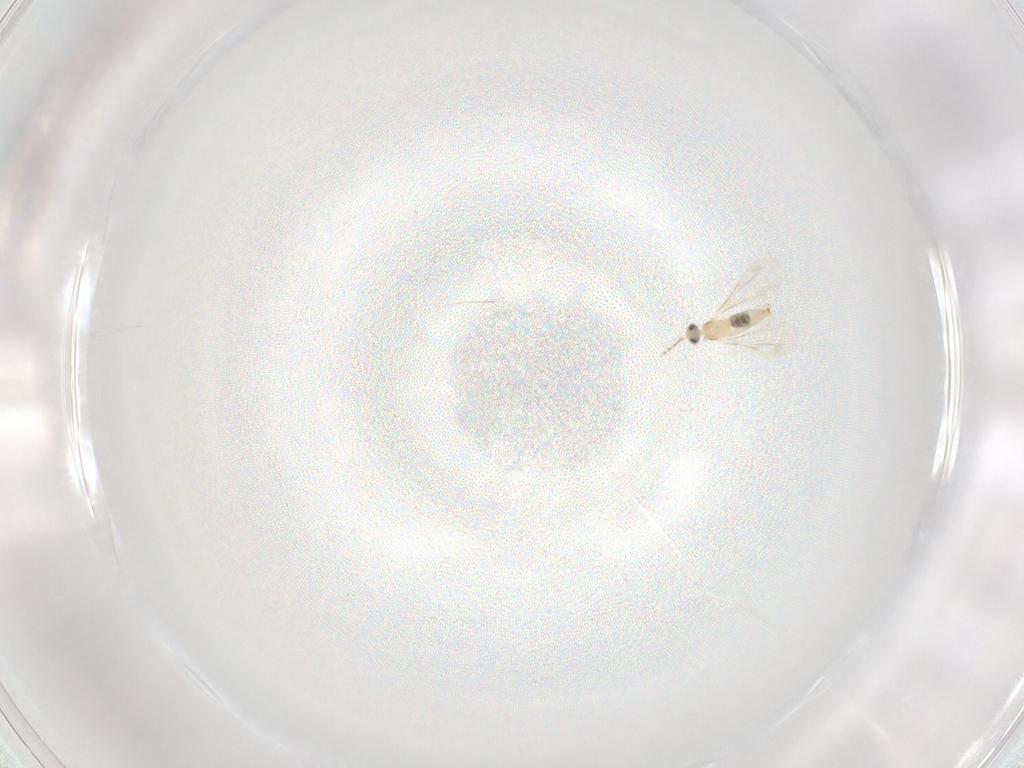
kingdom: Animalia
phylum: Arthropoda
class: Insecta
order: Diptera
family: Cecidomyiidae
